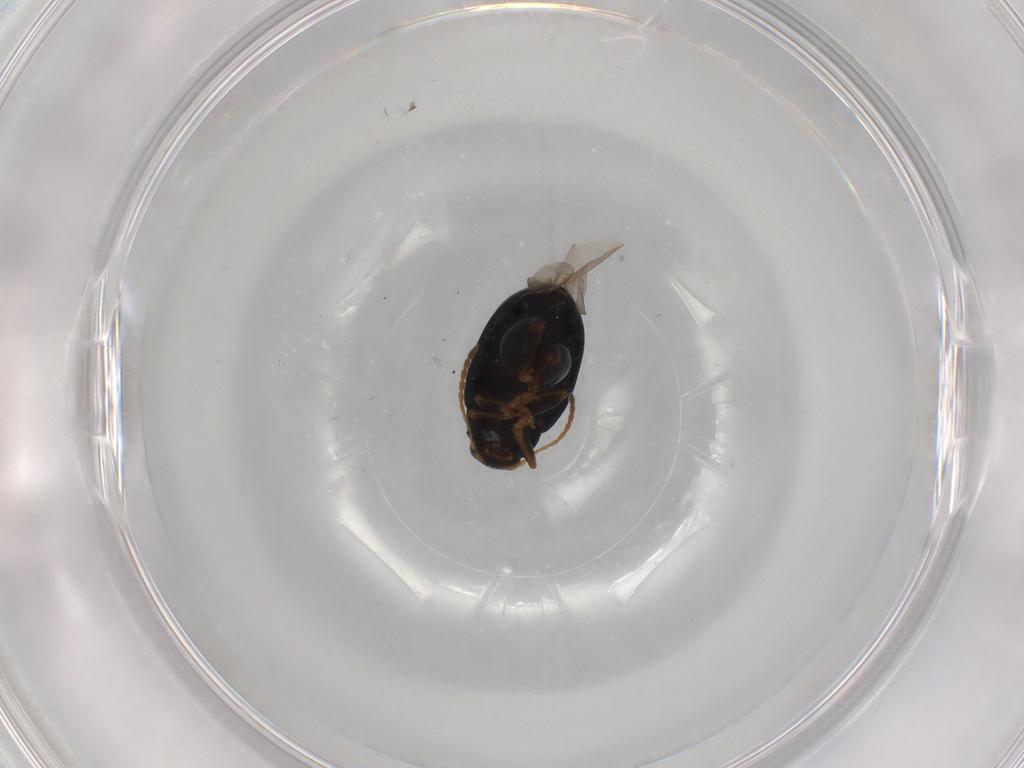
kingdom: Animalia
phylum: Arthropoda
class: Insecta
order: Coleoptera
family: Chrysomelidae
